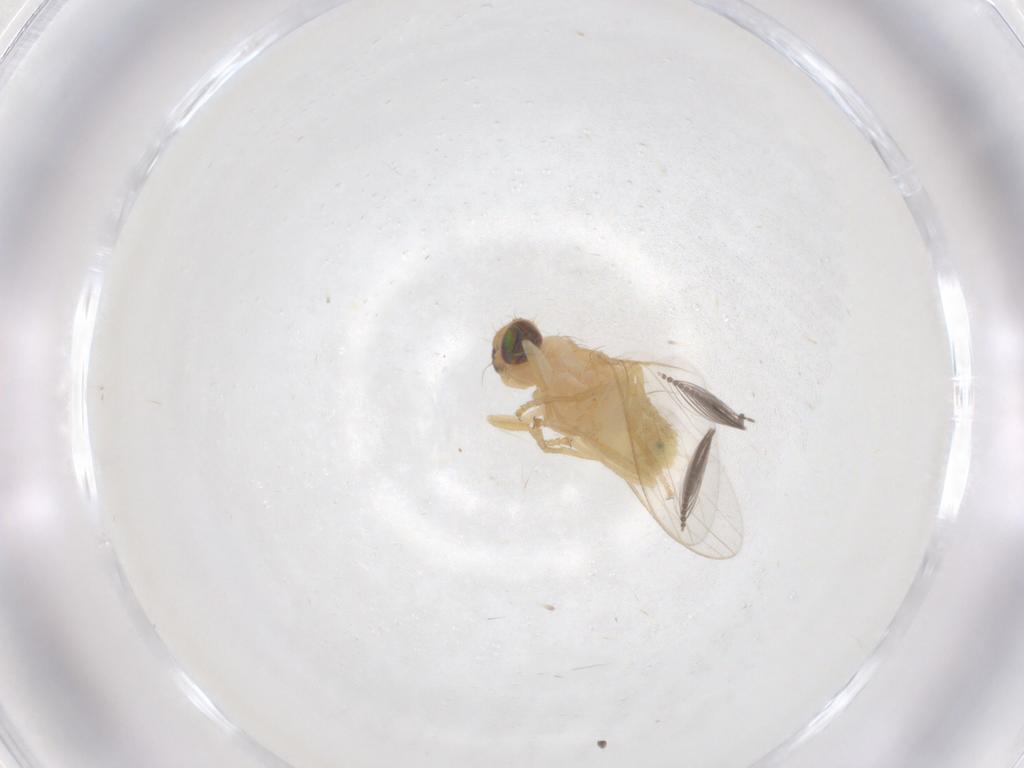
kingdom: Animalia
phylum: Arthropoda
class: Insecta
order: Diptera
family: Chyromyidae
